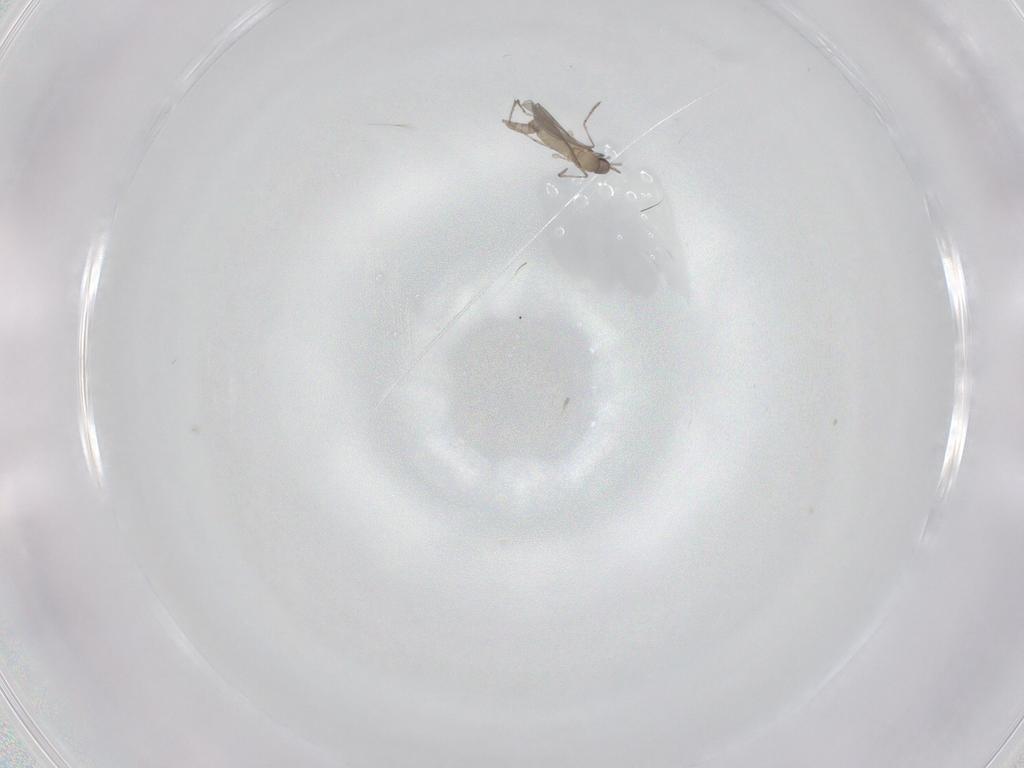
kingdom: Animalia
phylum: Arthropoda
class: Insecta
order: Diptera
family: Cecidomyiidae
